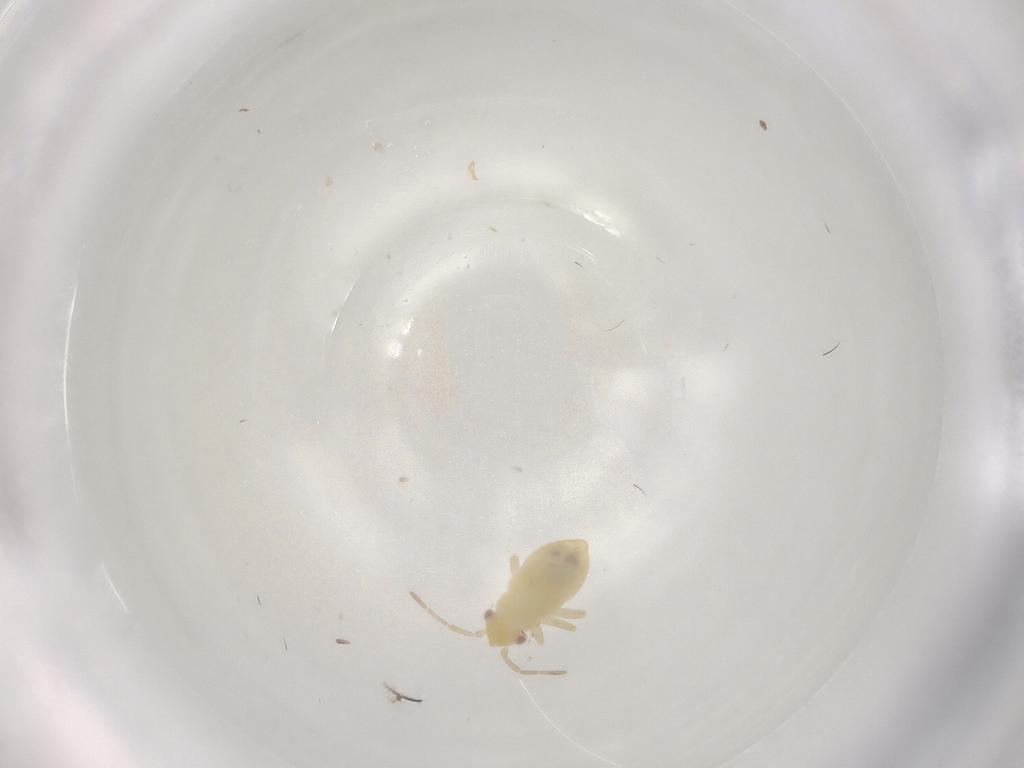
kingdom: Animalia
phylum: Arthropoda
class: Insecta
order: Hemiptera
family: Miridae
